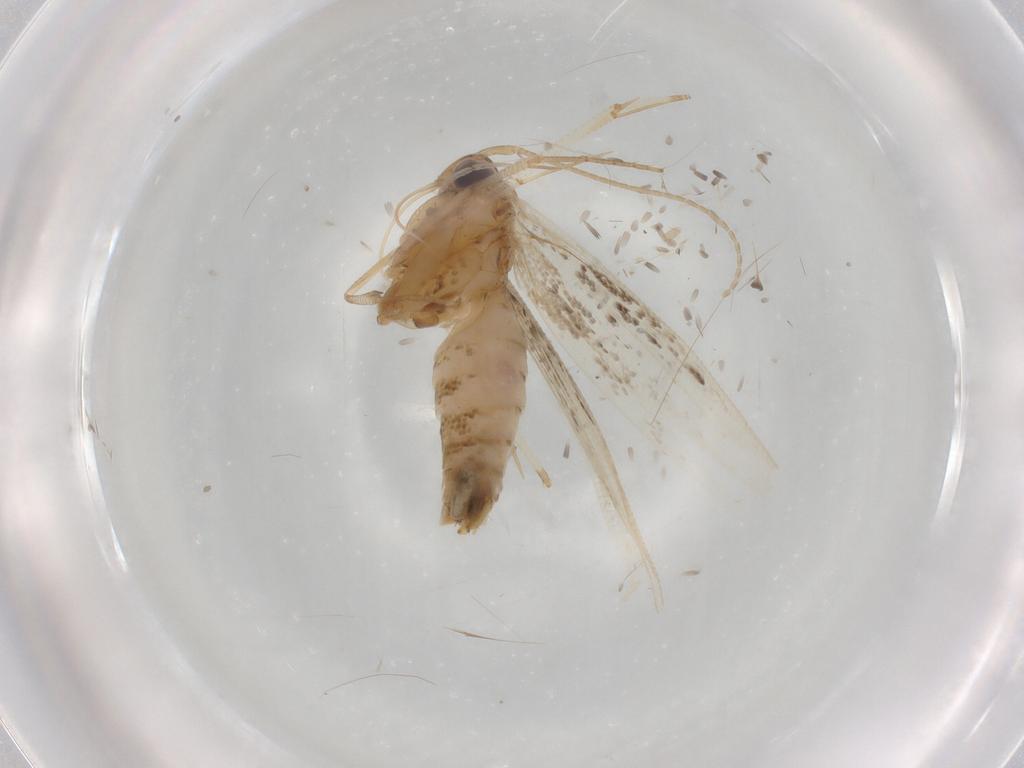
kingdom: Animalia
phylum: Arthropoda
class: Insecta
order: Lepidoptera
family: Cosmopterigidae
